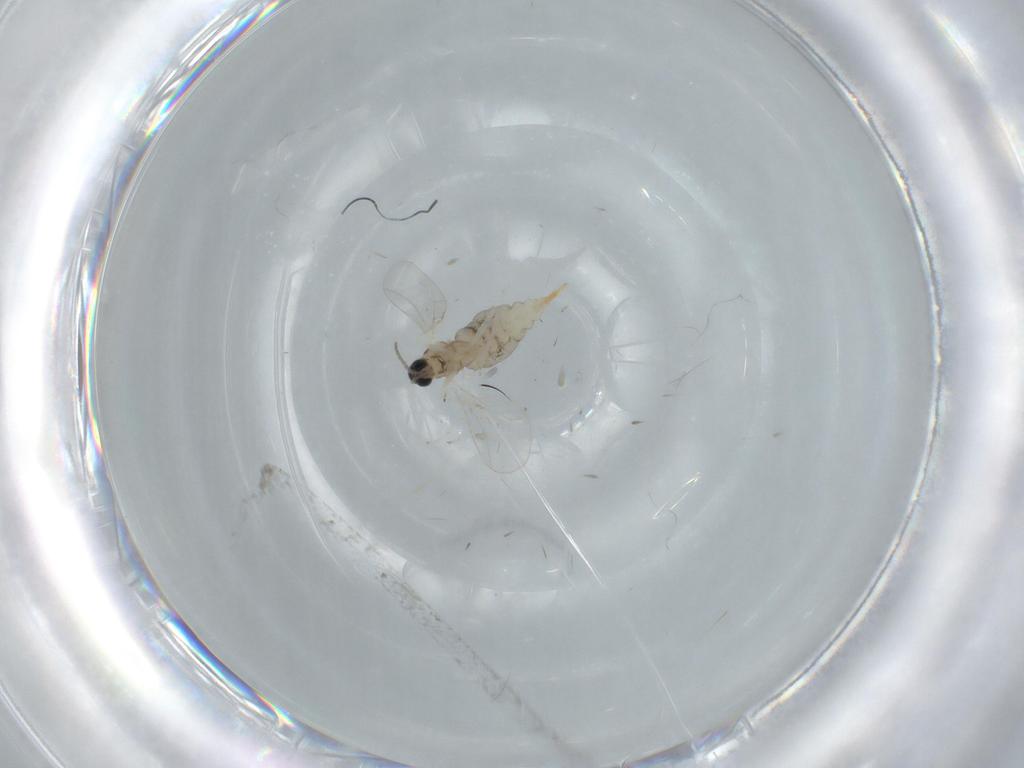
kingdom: Animalia
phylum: Arthropoda
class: Insecta
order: Diptera
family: Cecidomyiidae
